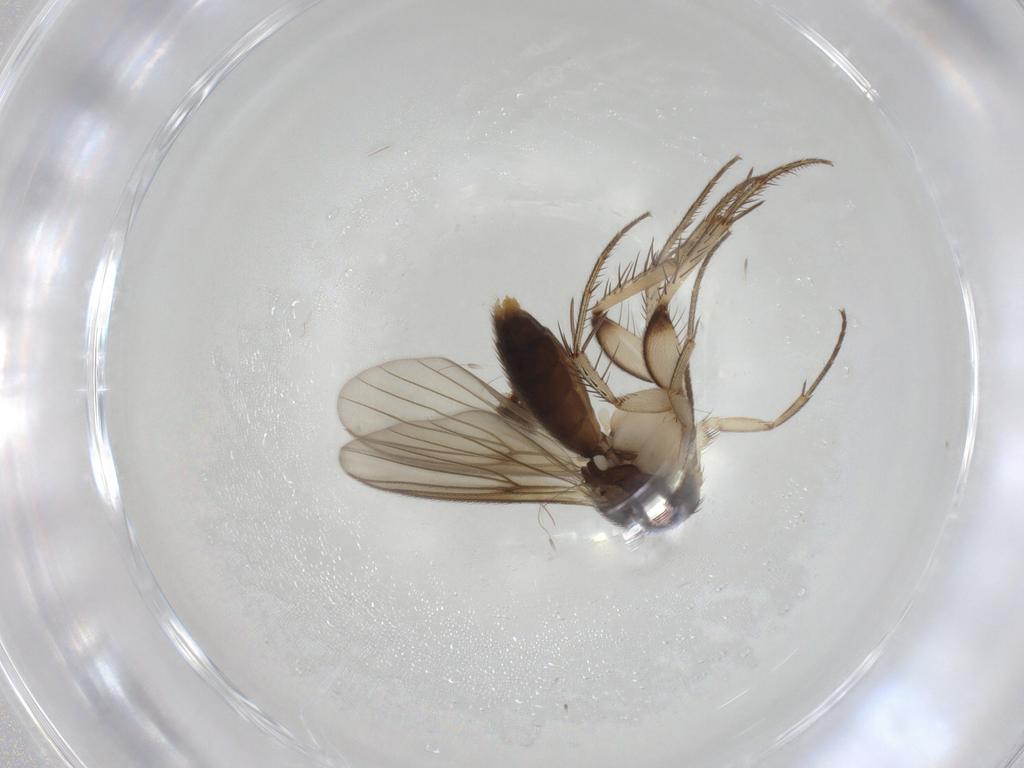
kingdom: Animalia
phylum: Arthropoda
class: Insecta
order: Diptera
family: Mycetophilidae
